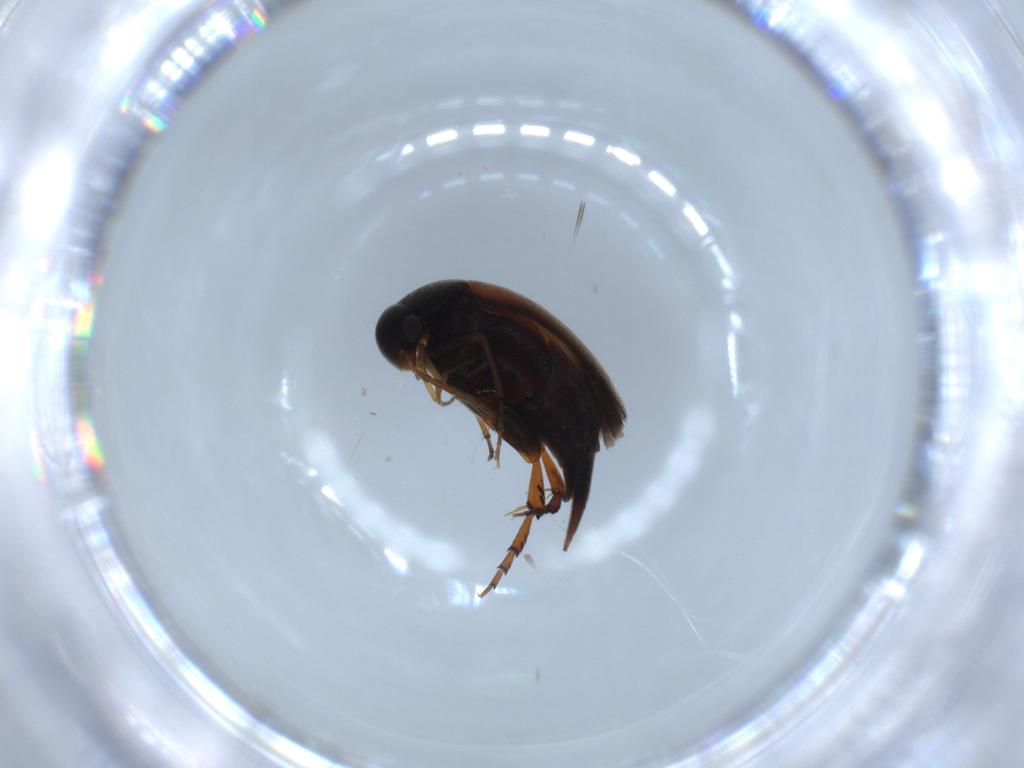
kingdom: Animalia
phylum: Arthropoda
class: Insecta
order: Coleoptera
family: Mordellidae
